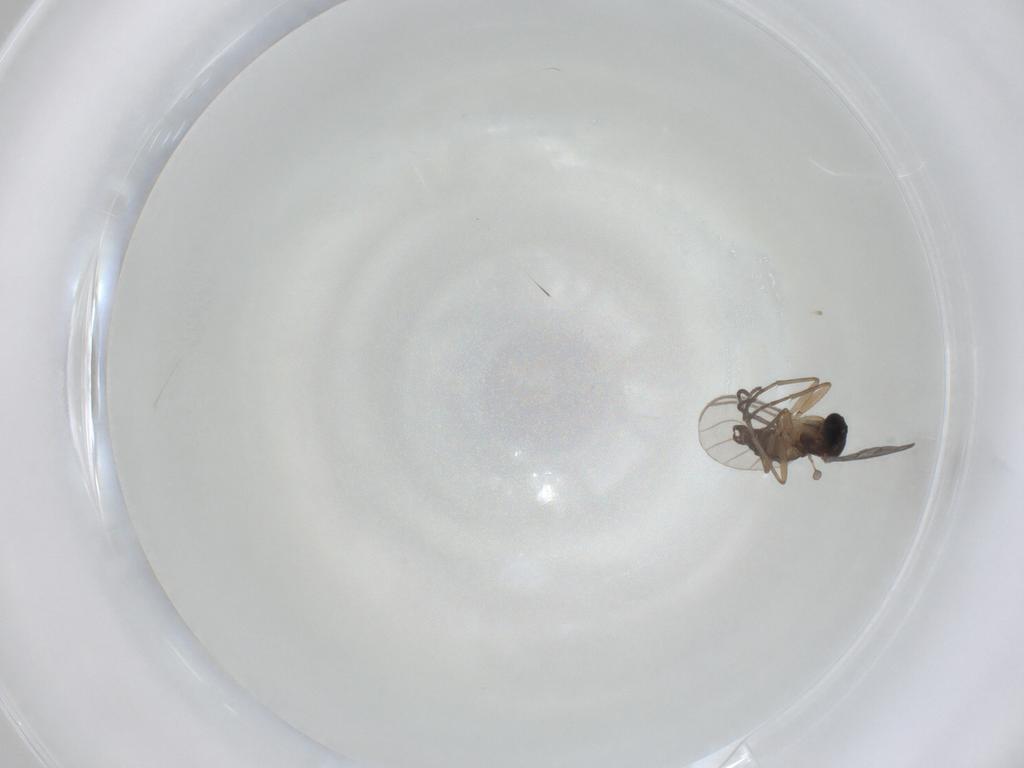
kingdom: Animalia
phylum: Arthropoda
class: Insecta
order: Diptera
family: Sciaridae
